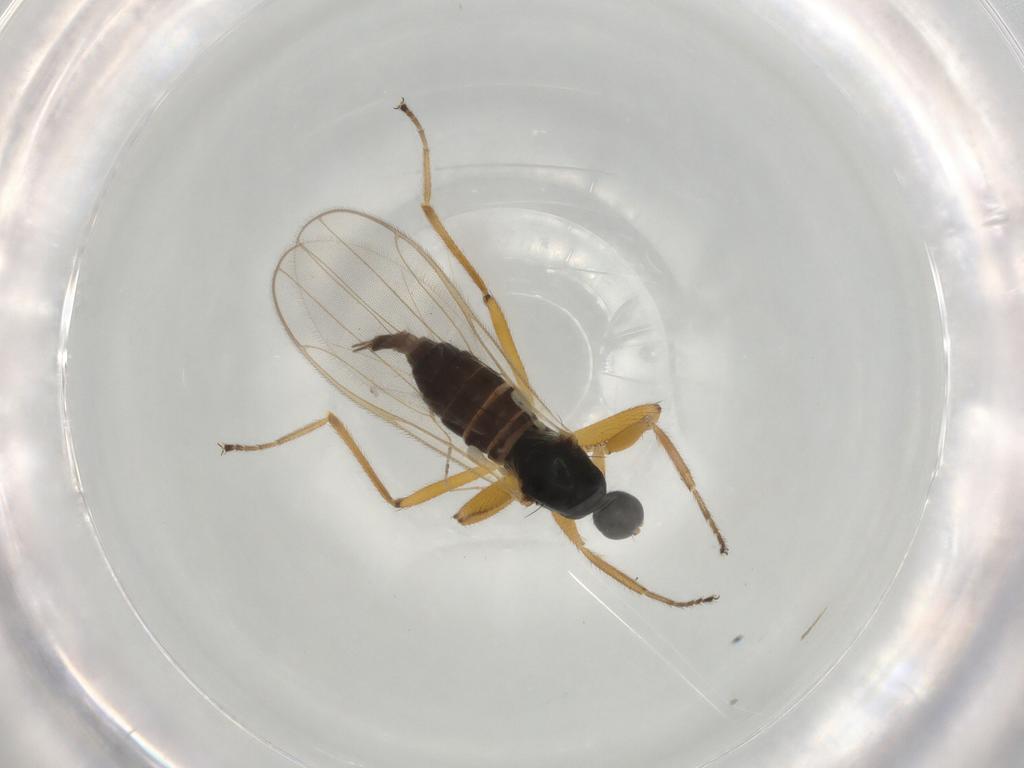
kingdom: Animalia
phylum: Arthropoda
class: Insecta
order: Diptera
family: Hybotidae
